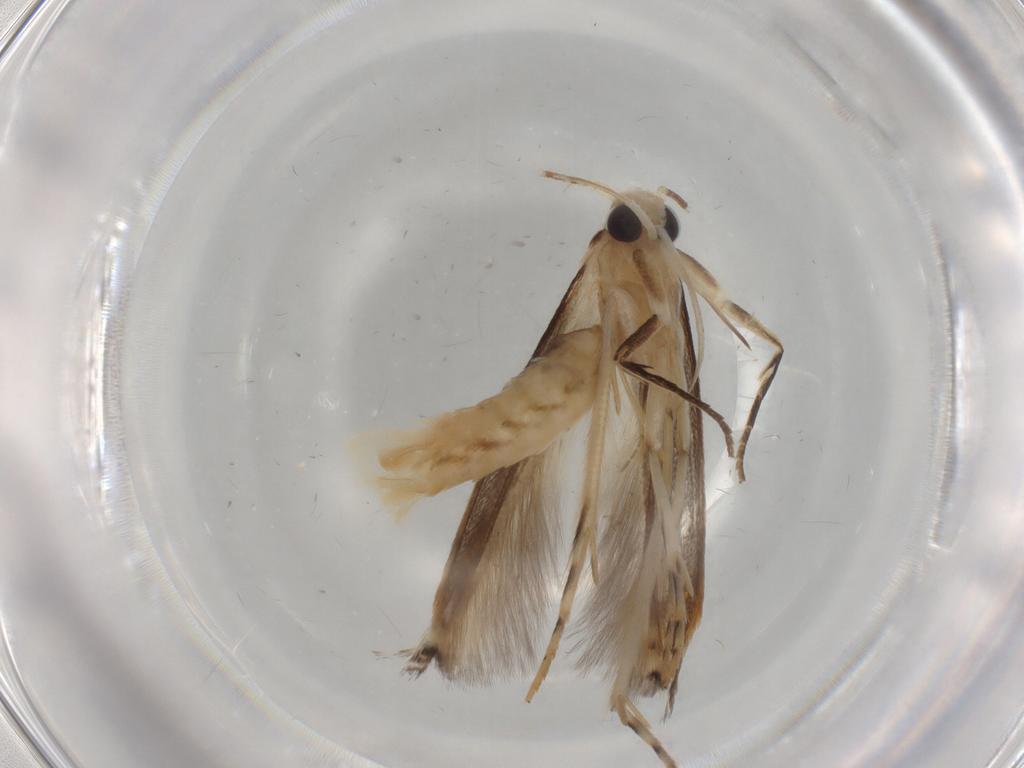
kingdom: Animalia
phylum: Arthropoda
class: Insecta
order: Lepidoptera
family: Gelechiidae
